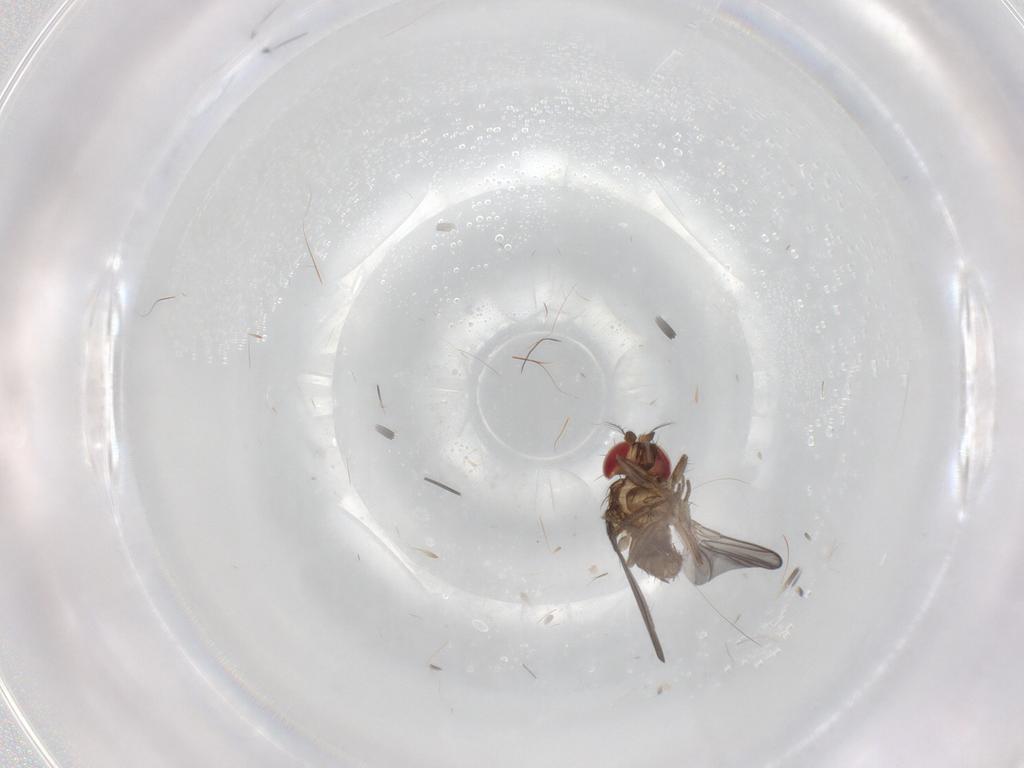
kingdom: Animalia
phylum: Arthropoda
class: Insecta
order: Diptera
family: Drosophilidae
